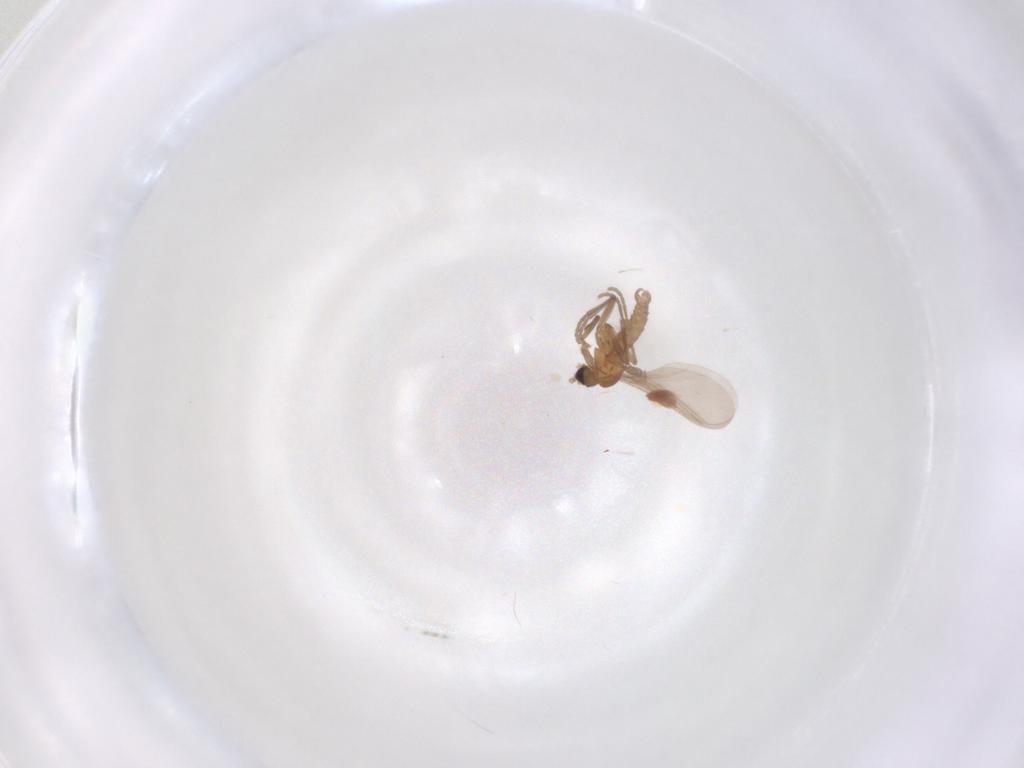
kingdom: Animalia
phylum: Arthropoda
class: Insecta
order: Diptera
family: Sciaridae
